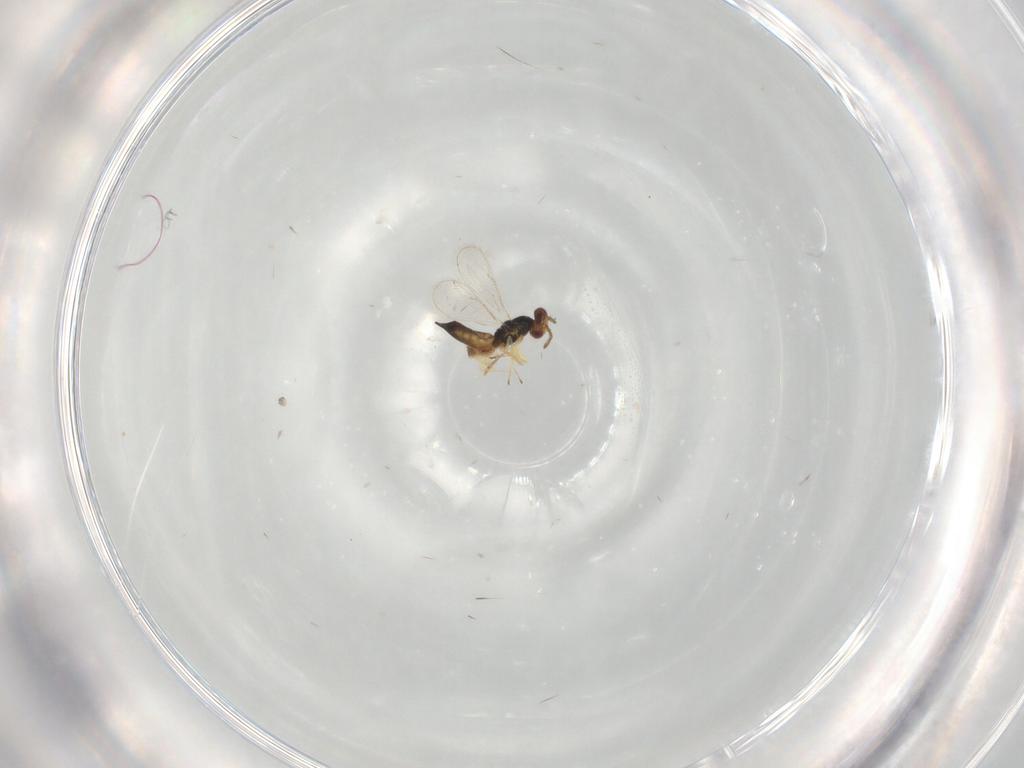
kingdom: Animalia
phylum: Arthropoda
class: Insecta
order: Hymenoptera
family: Eulophidae
